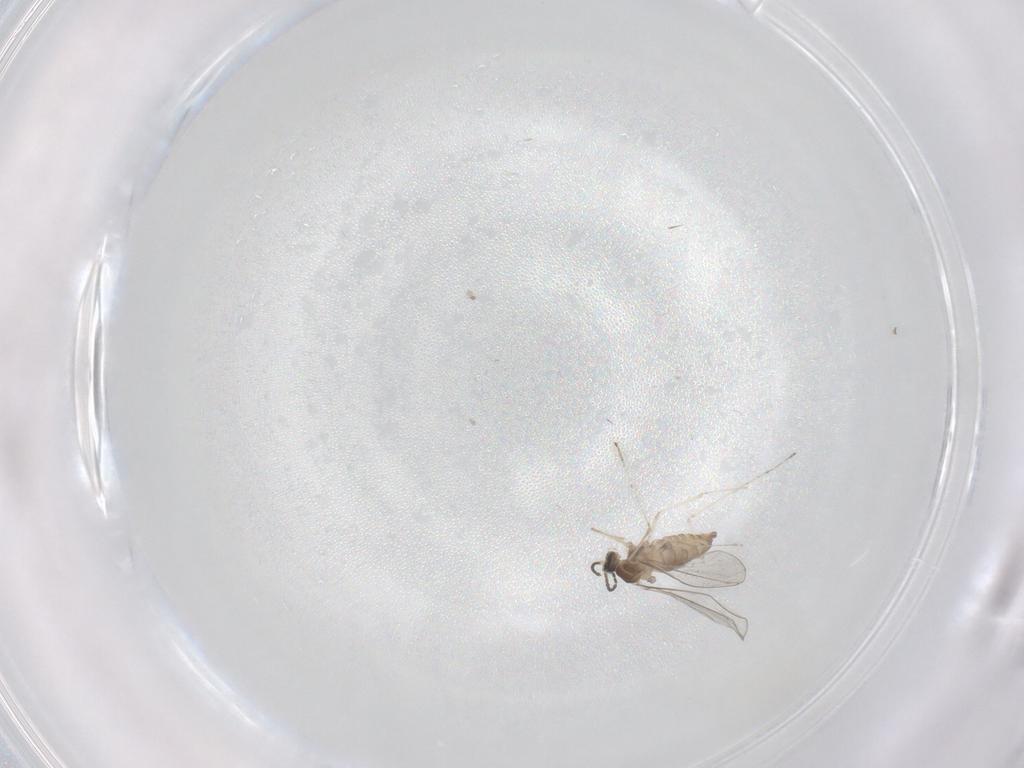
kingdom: Animalia
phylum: Arthropoda
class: Insecta
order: Diptera
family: Cecidomyiidae
